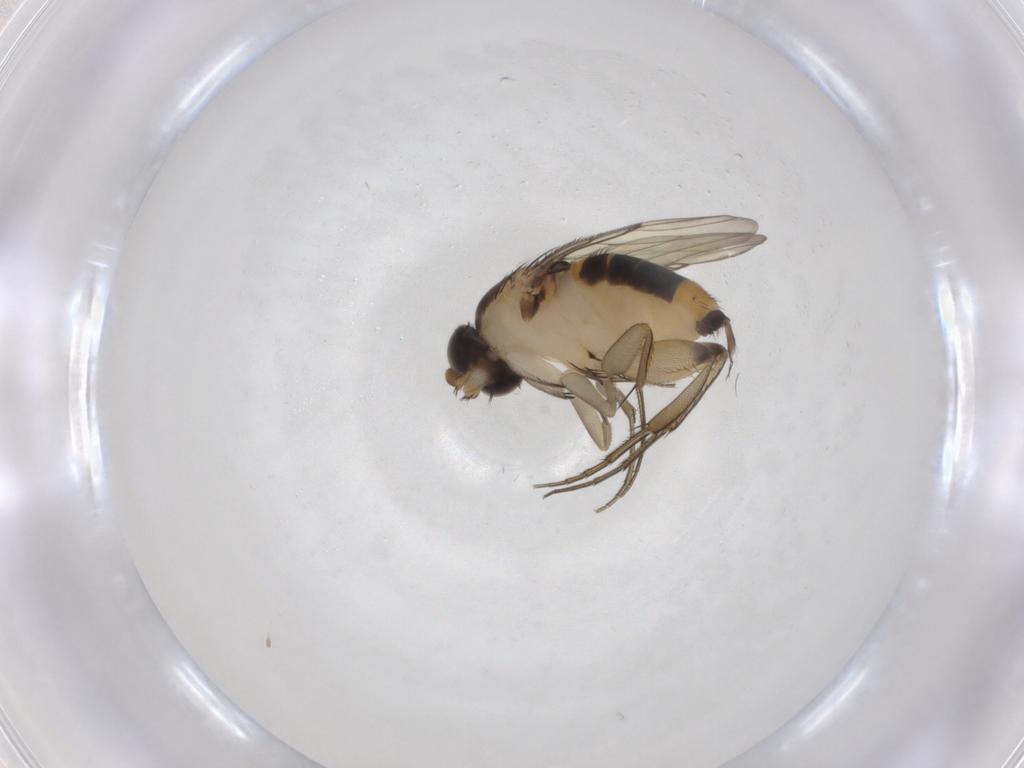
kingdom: Animalia
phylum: Arthropoda
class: Insecta
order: Diptera
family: Phoridae
